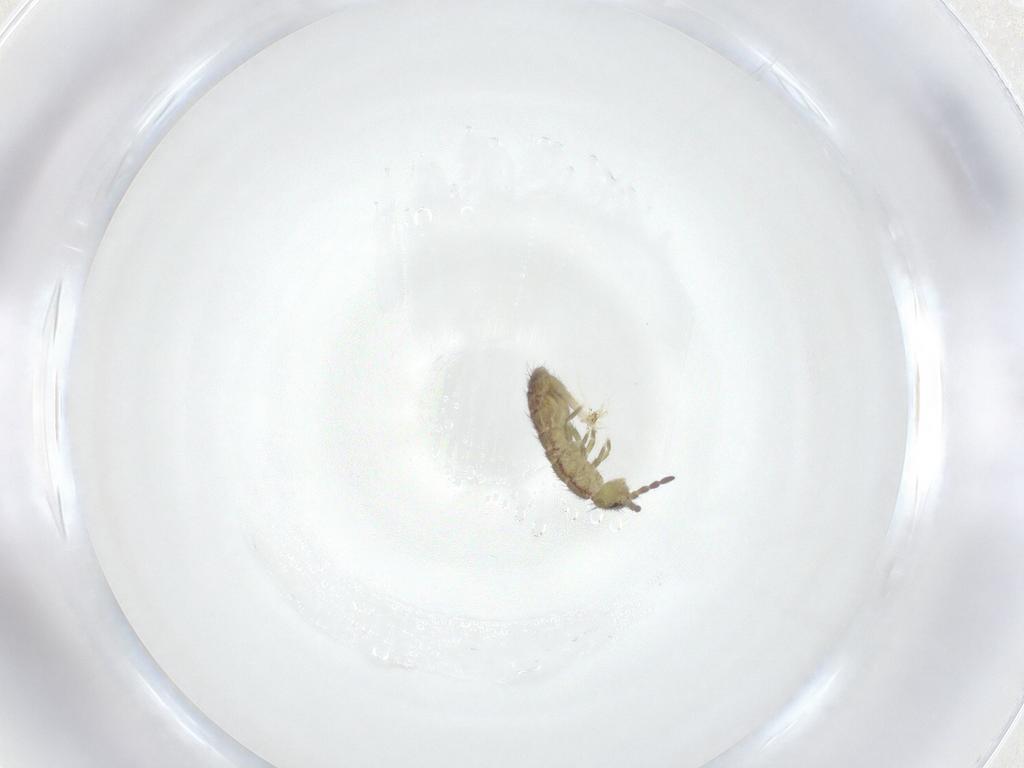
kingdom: Animalia
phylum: Arthropoda
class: Collembola
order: Entomobryomorpha
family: Isotomidae
